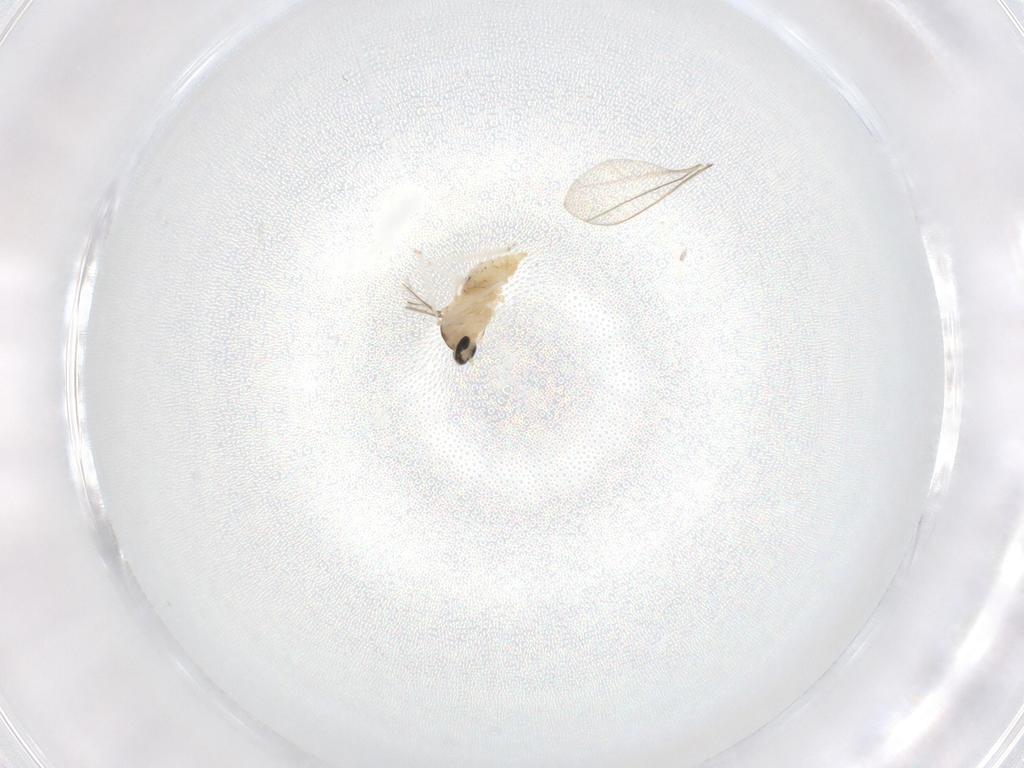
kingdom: Animalia
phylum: Arthropoda
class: Insecta
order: Diptera
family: Cecidomyiidae
